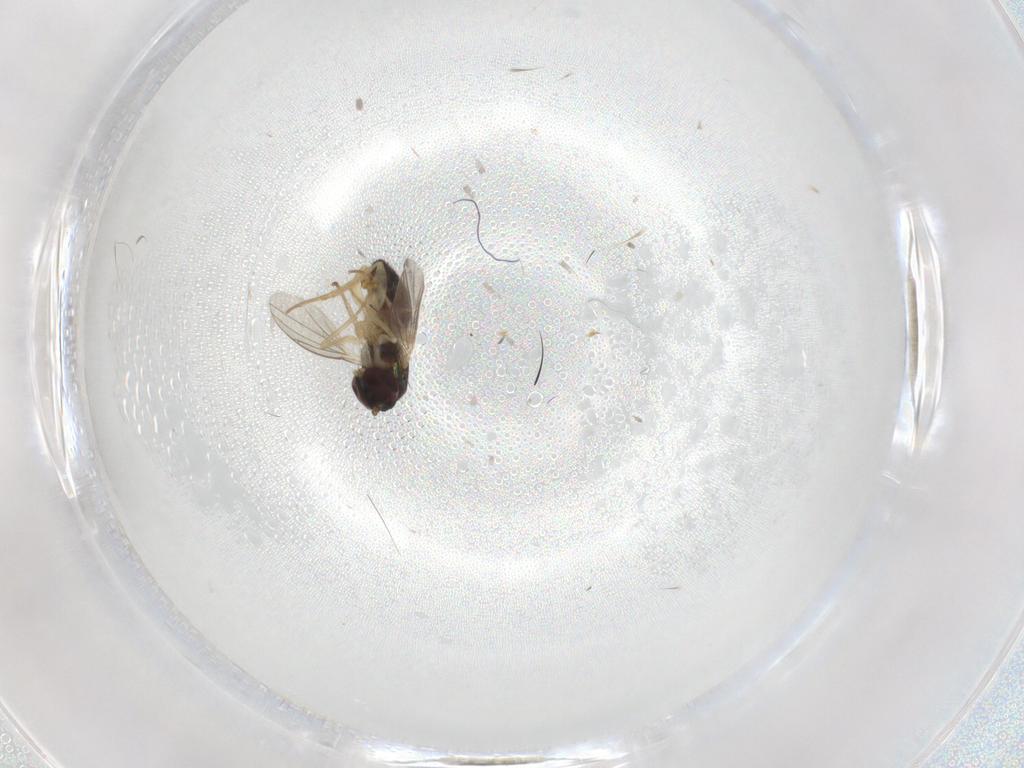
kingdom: Animalia
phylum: Arthropoda
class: Insecta
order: Diptera
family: Dolichopodidae
